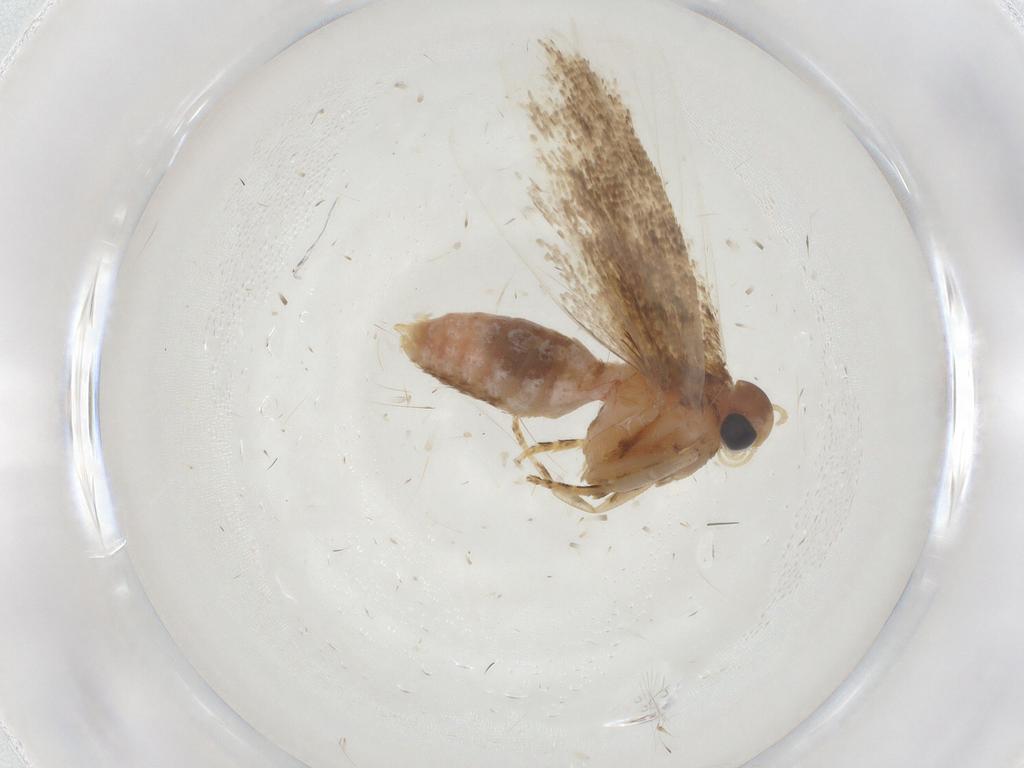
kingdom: Animalia
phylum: Arthropoda
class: Insecta
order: Lepidoptera
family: Gelechiidae
